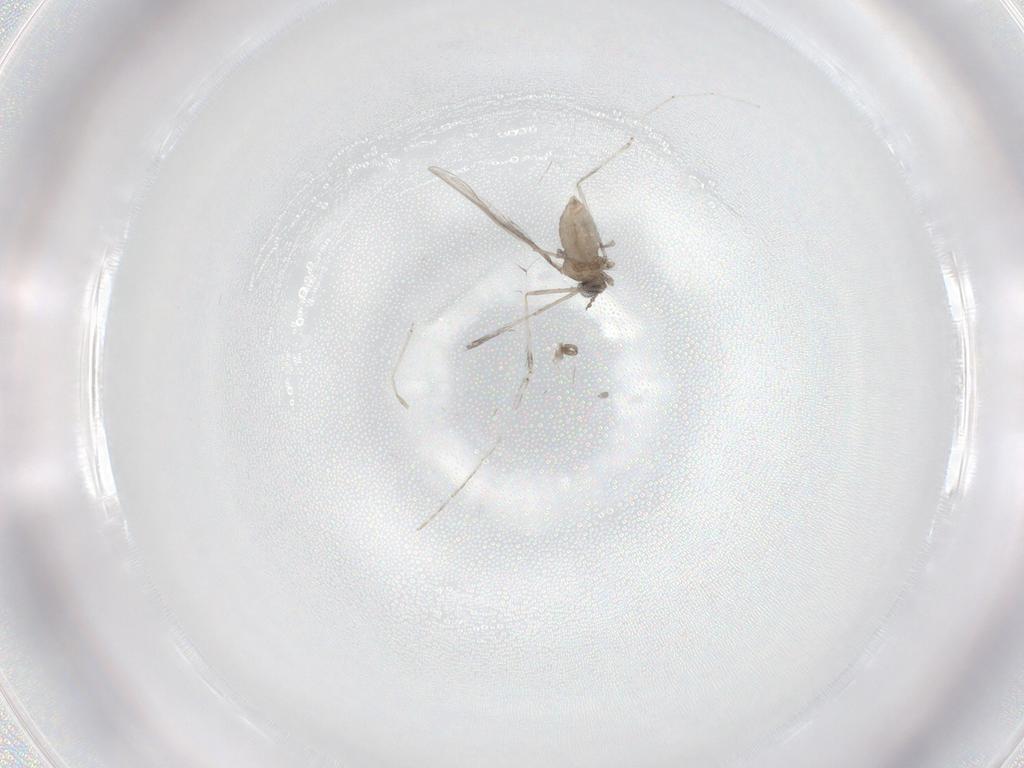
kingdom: Animalia
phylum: Arthropoda
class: Insecta
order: Diptera
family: Cecidomyiidae
